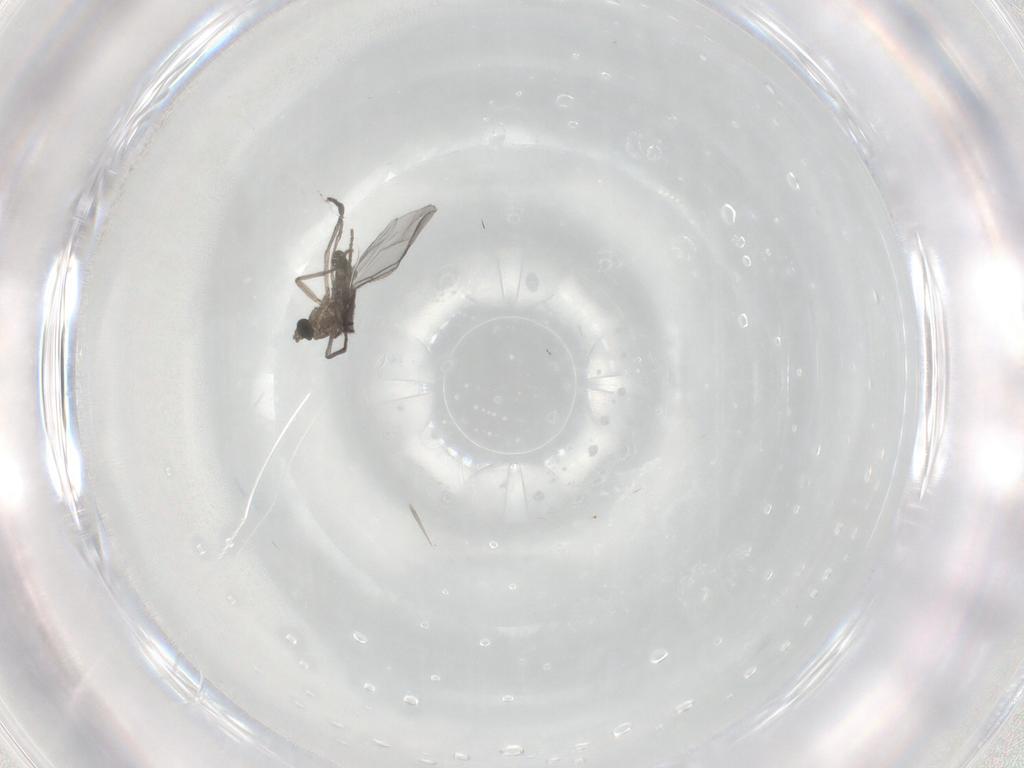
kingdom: Animalia
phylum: Arthropoda
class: Insecta
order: Diptera
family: Sciaridae
